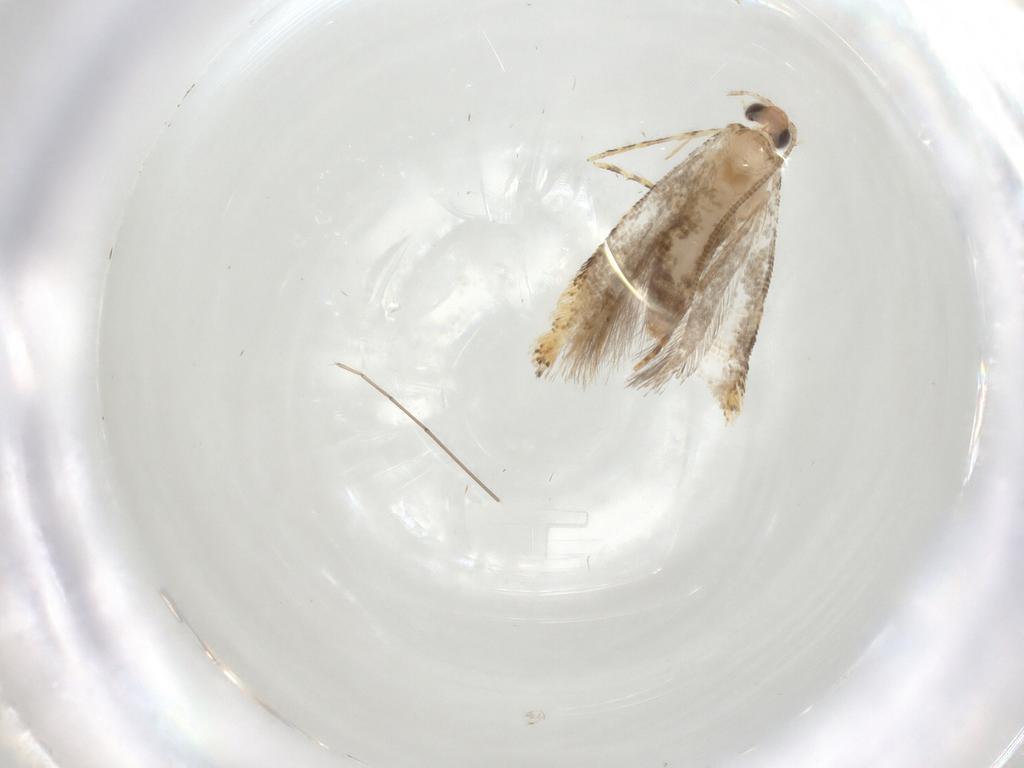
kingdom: Animalia
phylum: Arthropoda
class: Insecta
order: Lepidoptera
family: Tineidae
